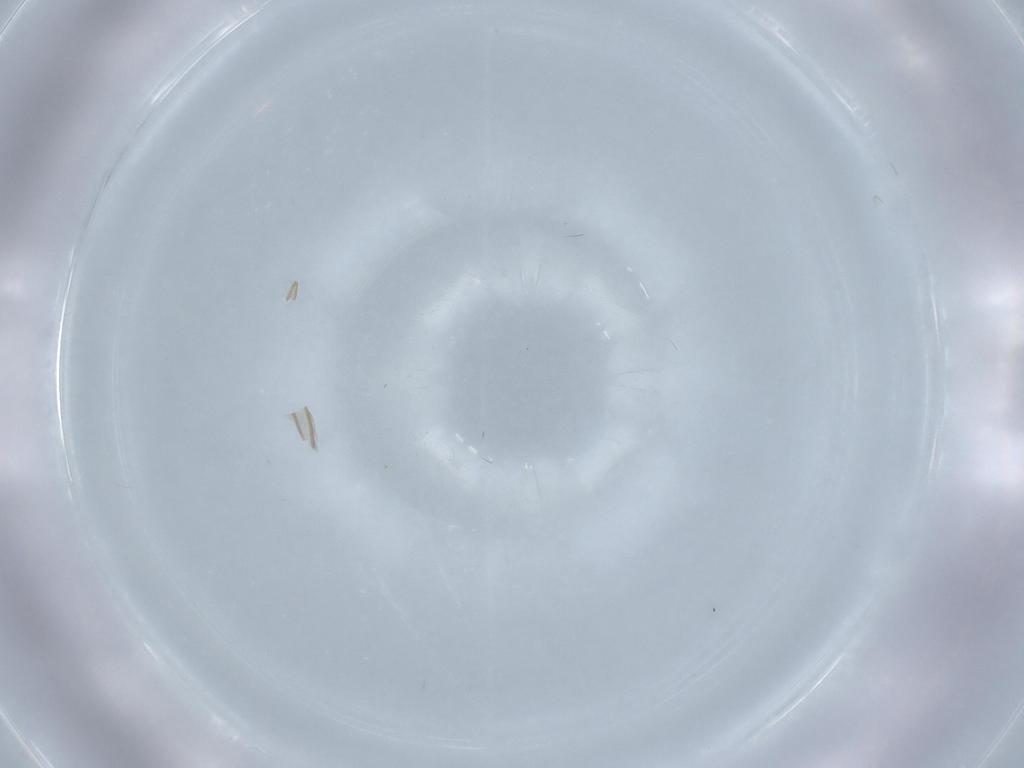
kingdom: Animalia
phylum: Arthropoda
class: Insecta
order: Diptera
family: Chironomidae
